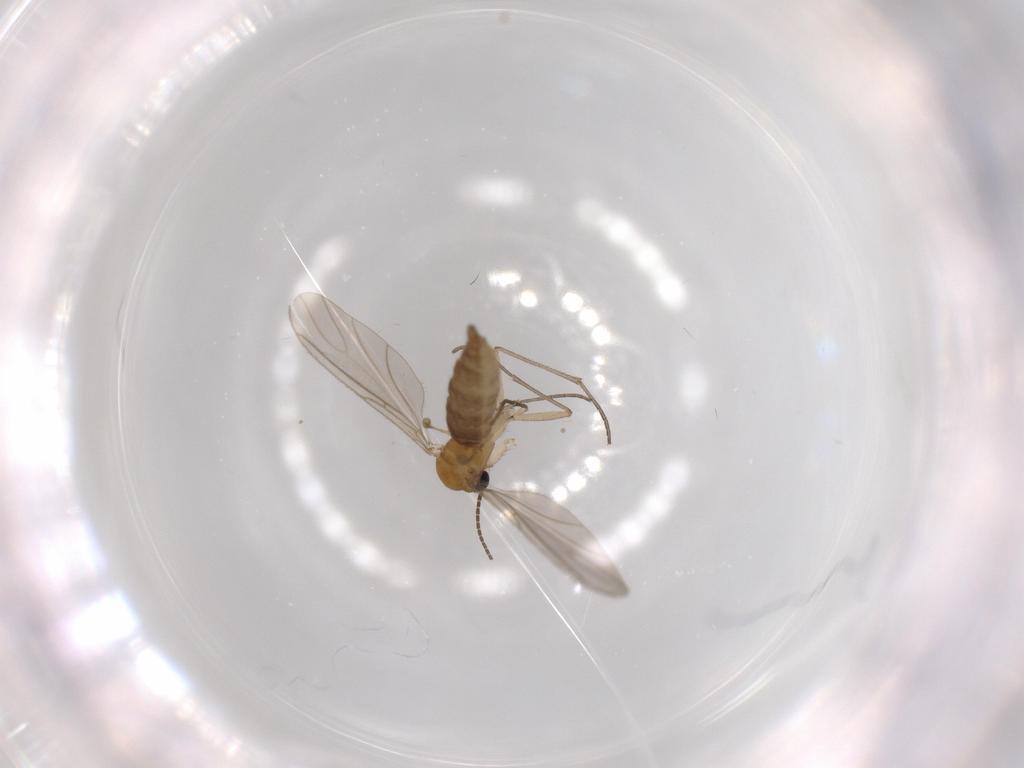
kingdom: Animalia
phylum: Arthropoda
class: Insecta
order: Diptera
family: Sciaridae
